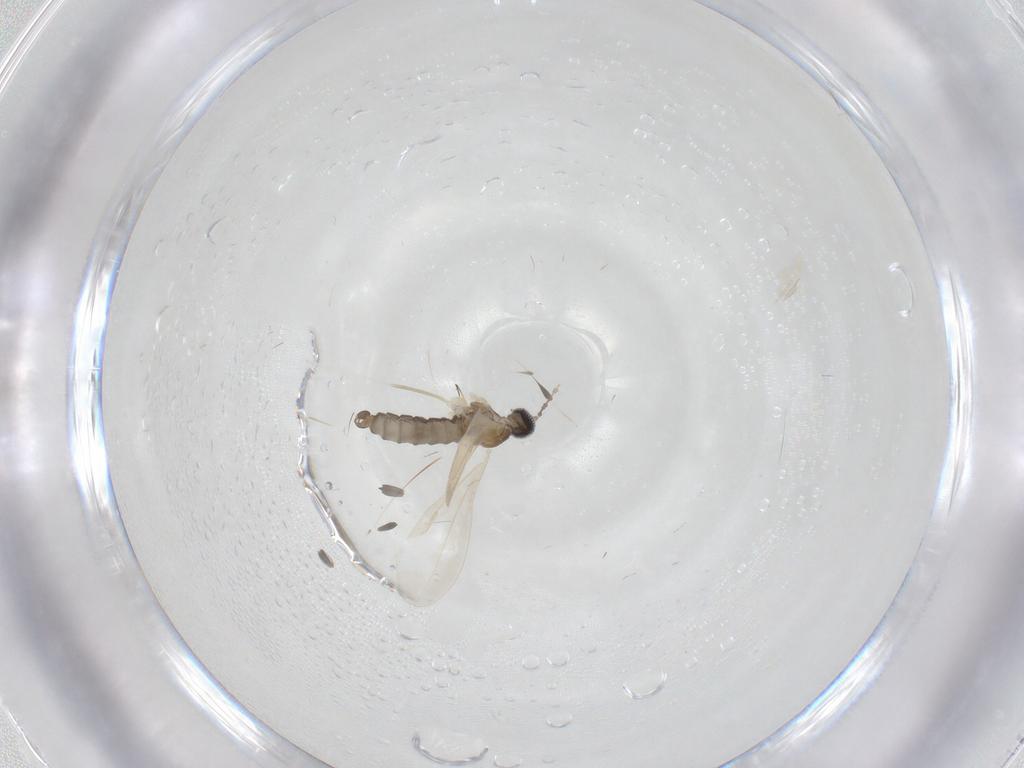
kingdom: Animalia
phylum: Arthropoda
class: Insecta
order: Diptera
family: Cecidomyiidae
